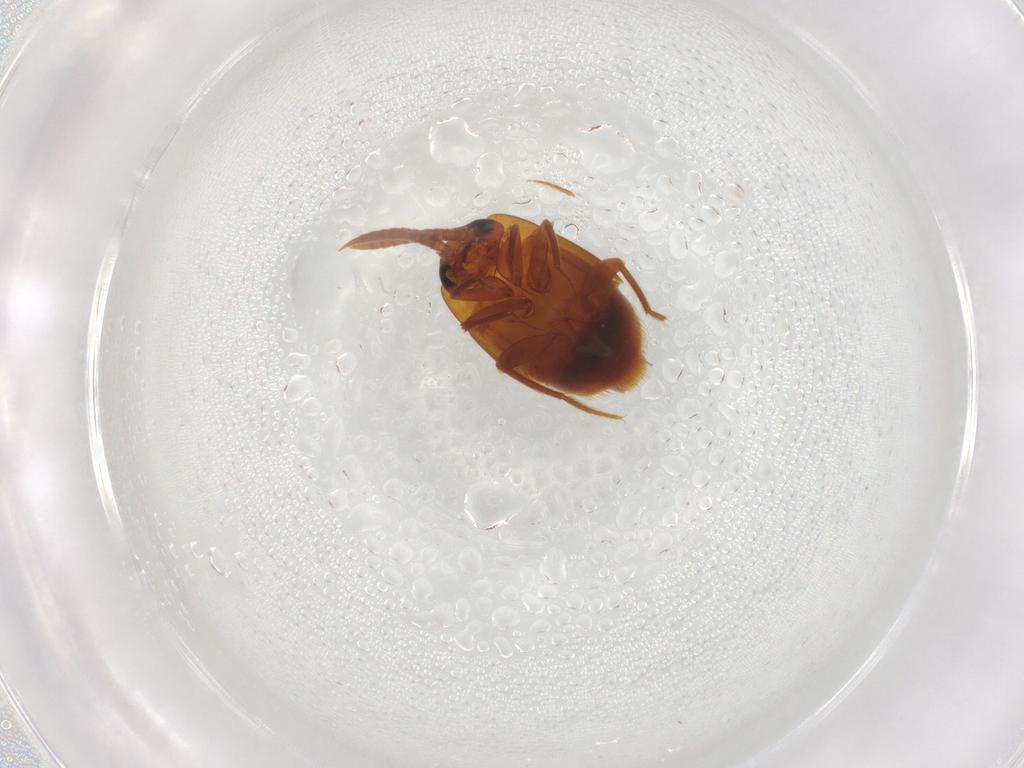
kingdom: Animalia
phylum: Arthropoda
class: Insecta
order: Coleoptera
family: Staphylinidae
